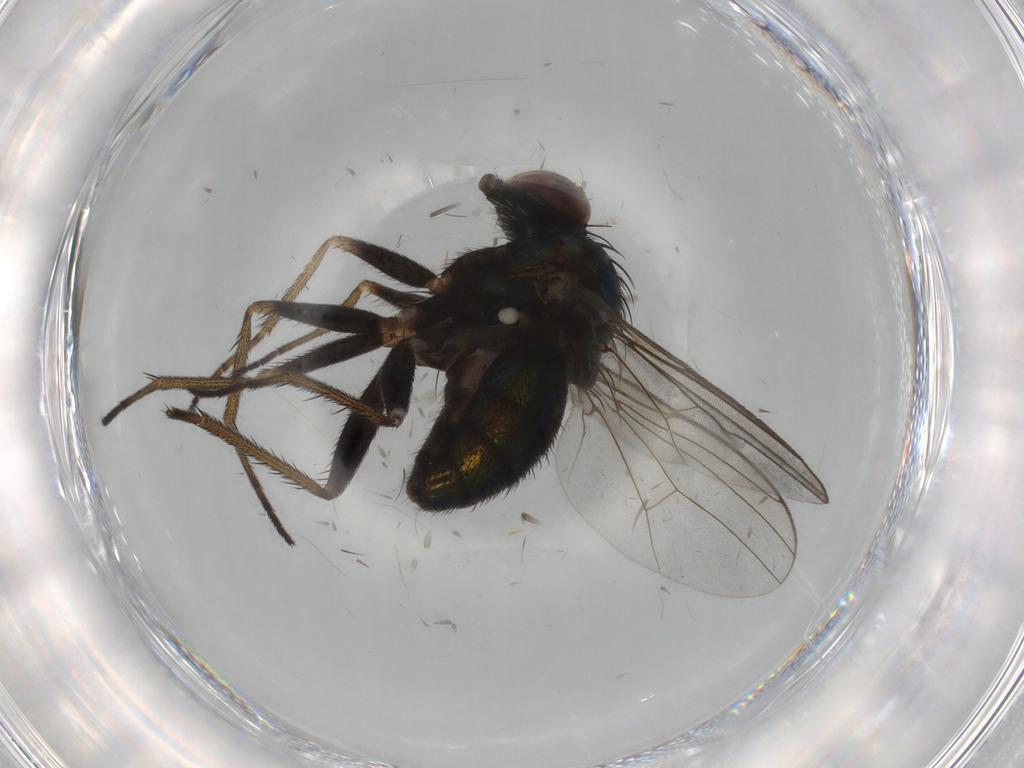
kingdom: Animalia
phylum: Arthropoda
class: Insecta
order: Diptera
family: Dolichopodidae
